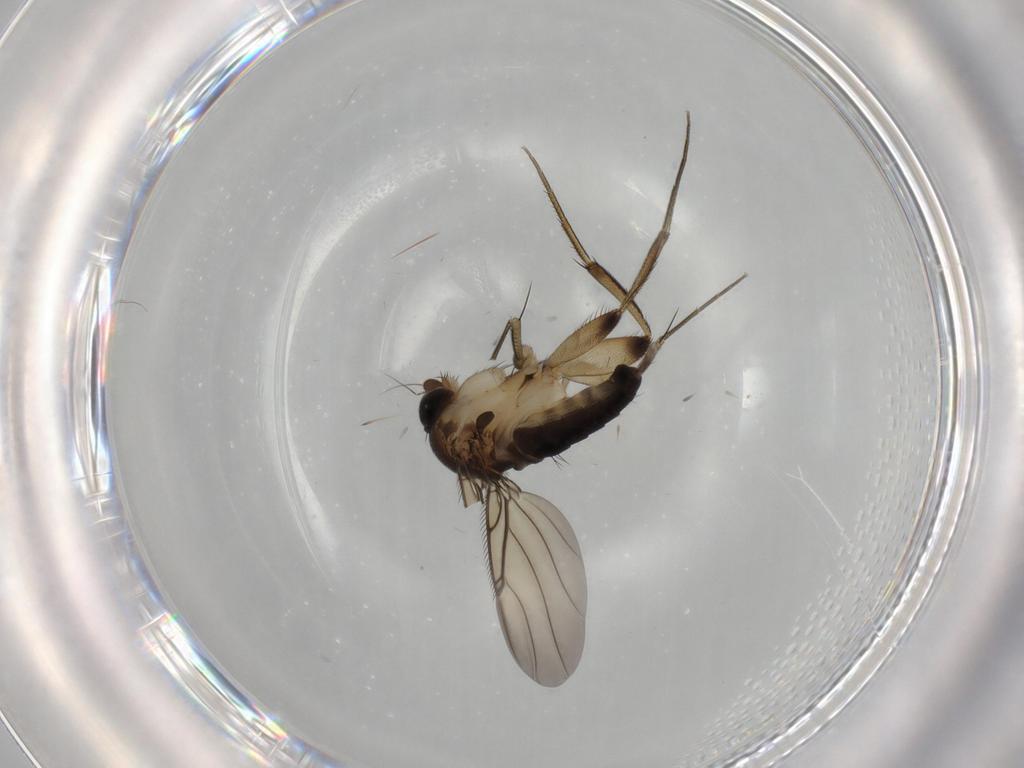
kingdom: Animalia
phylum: Arthropoda
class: Insecta
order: Diptera
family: Phoridae
